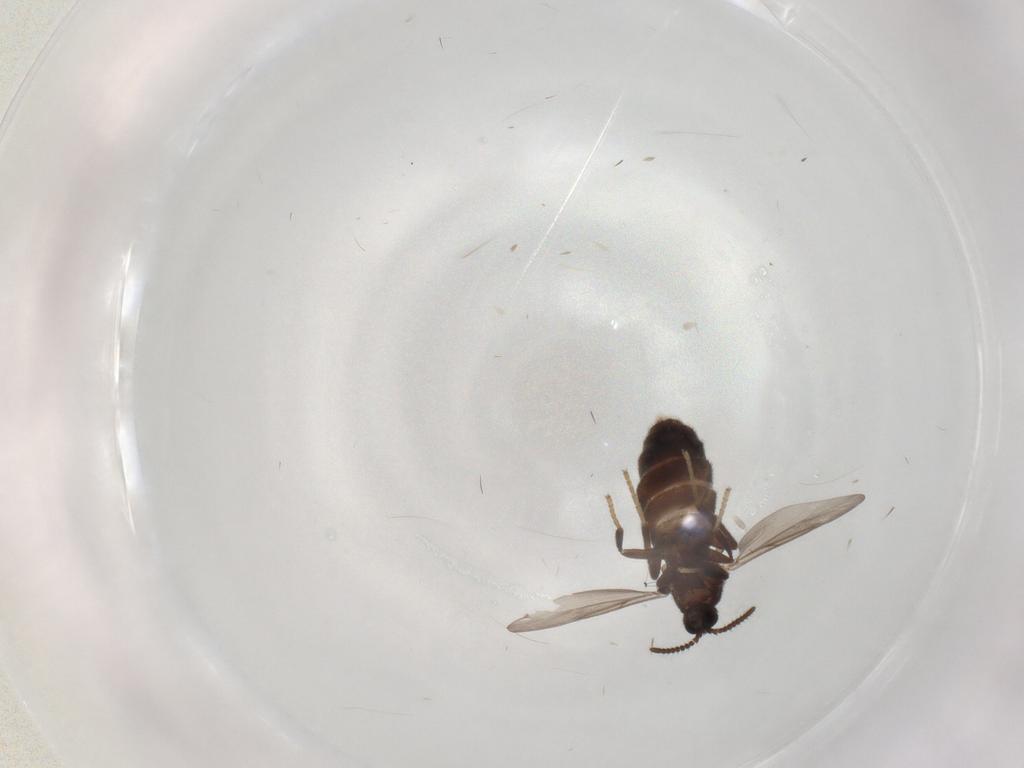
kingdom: Animalia
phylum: Arthropoda
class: Insecta
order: Diptera
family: Scatopsidae
